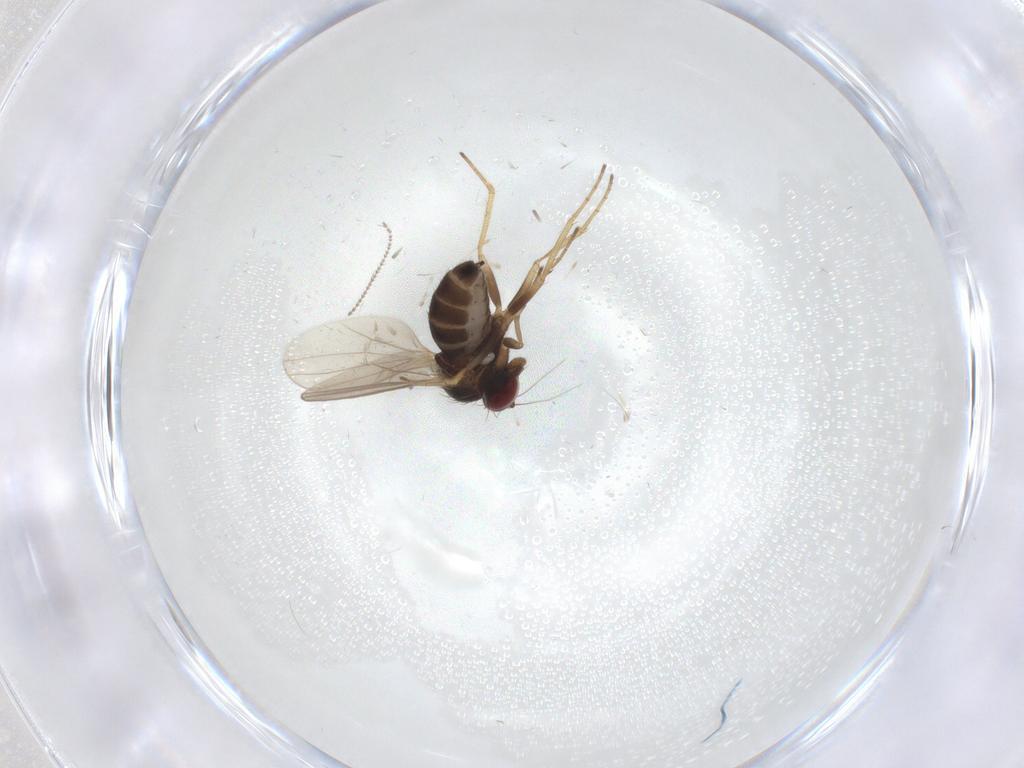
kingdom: Animalia
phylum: Arthropoda
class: Insecta
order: Diptera
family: Dolichopodidae
